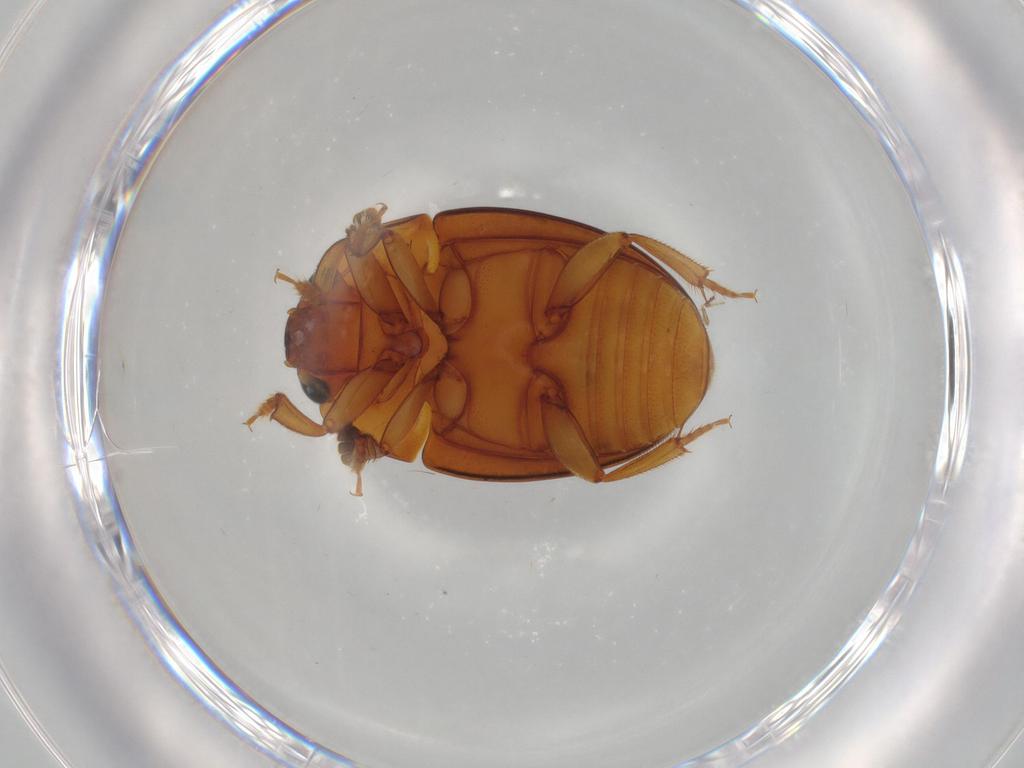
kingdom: Animalia
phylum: Arthropoda
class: Insecta
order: Coleoptera
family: Nitidulidae
